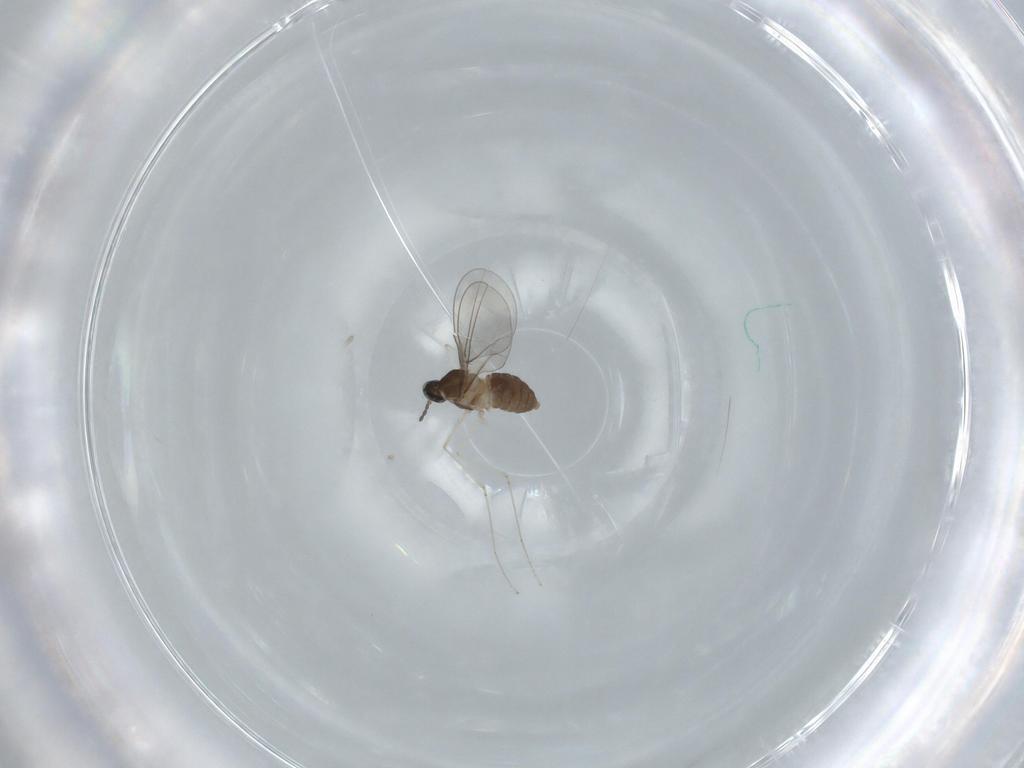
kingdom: Animalia
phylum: Arthropoda
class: Insecta
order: Diptera
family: Cecidomyiidae
